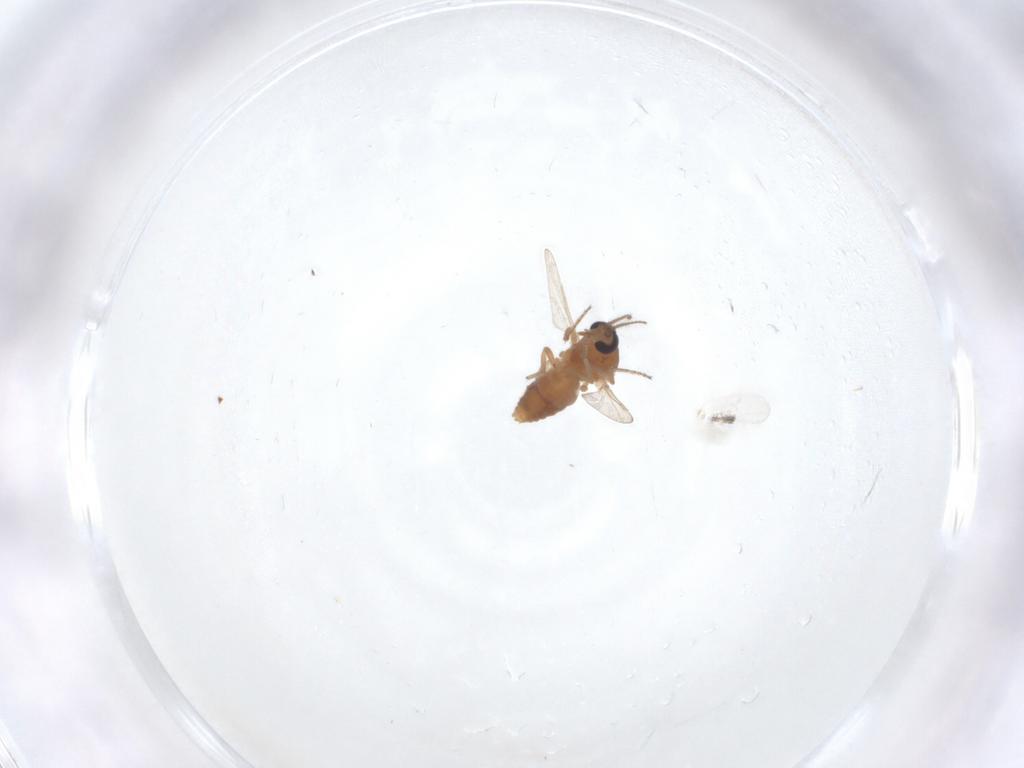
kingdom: Animalia
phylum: Arthropoda
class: Insecta
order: Diptera
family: Ceratopogonidae
